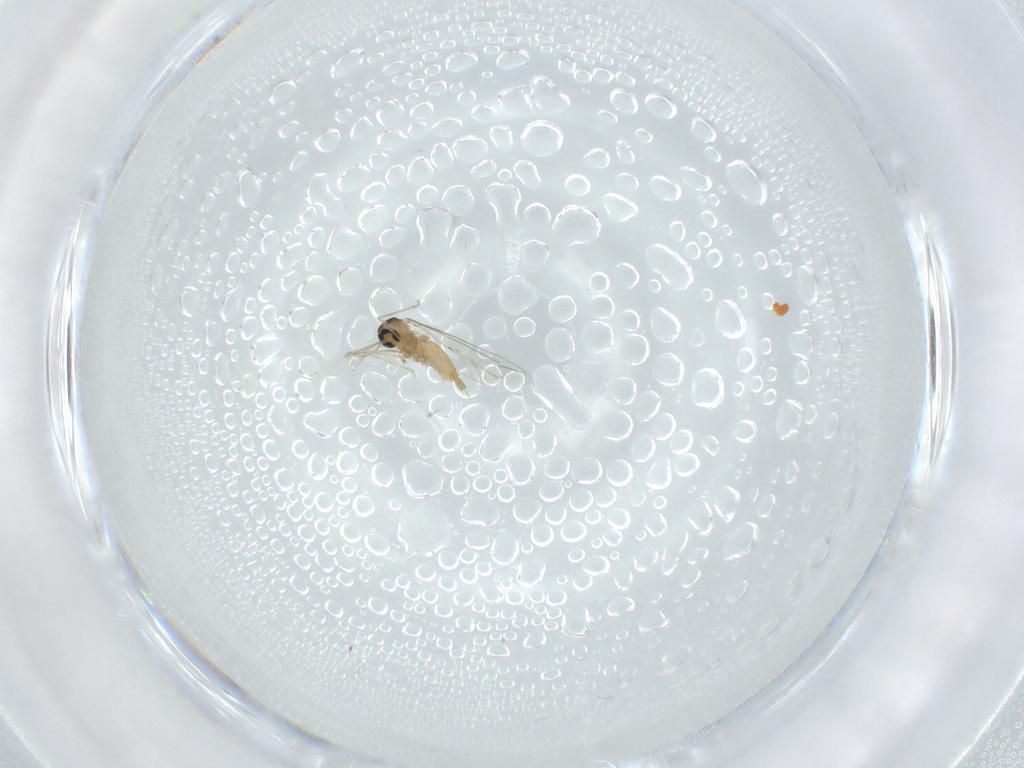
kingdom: Animalia
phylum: Arthropoda
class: Insecta
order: Diptera
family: Cecidomyiidae
